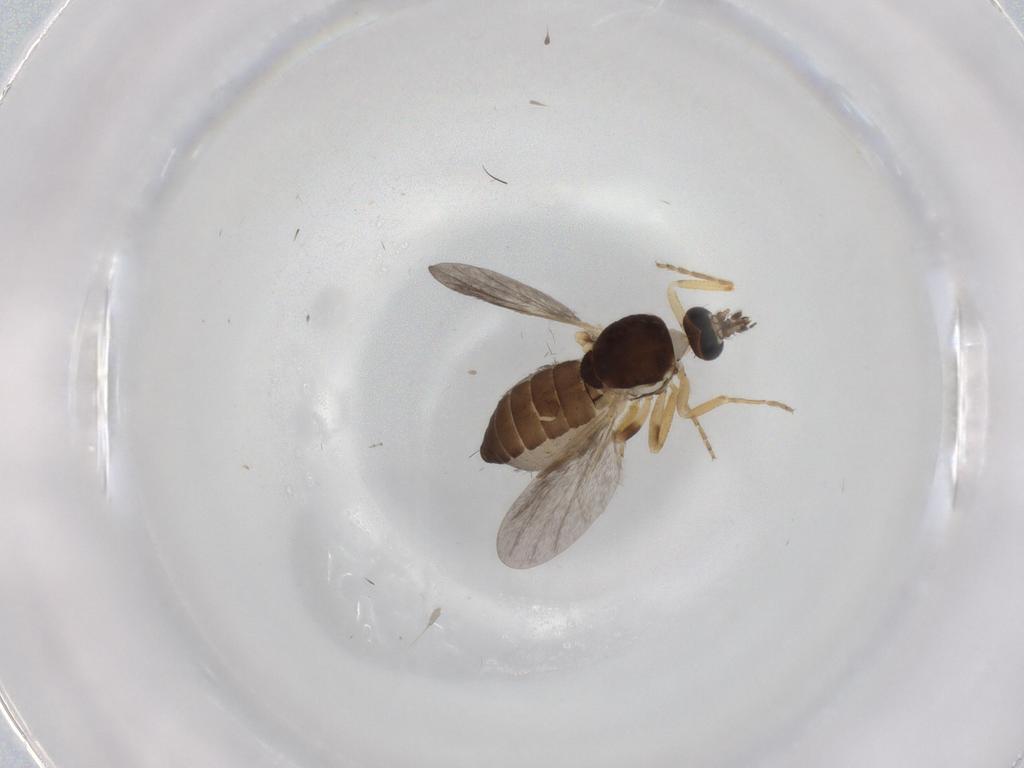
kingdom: Animalia
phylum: Arthropoda
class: Insecta
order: Diptera
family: Ceratopogonidae
